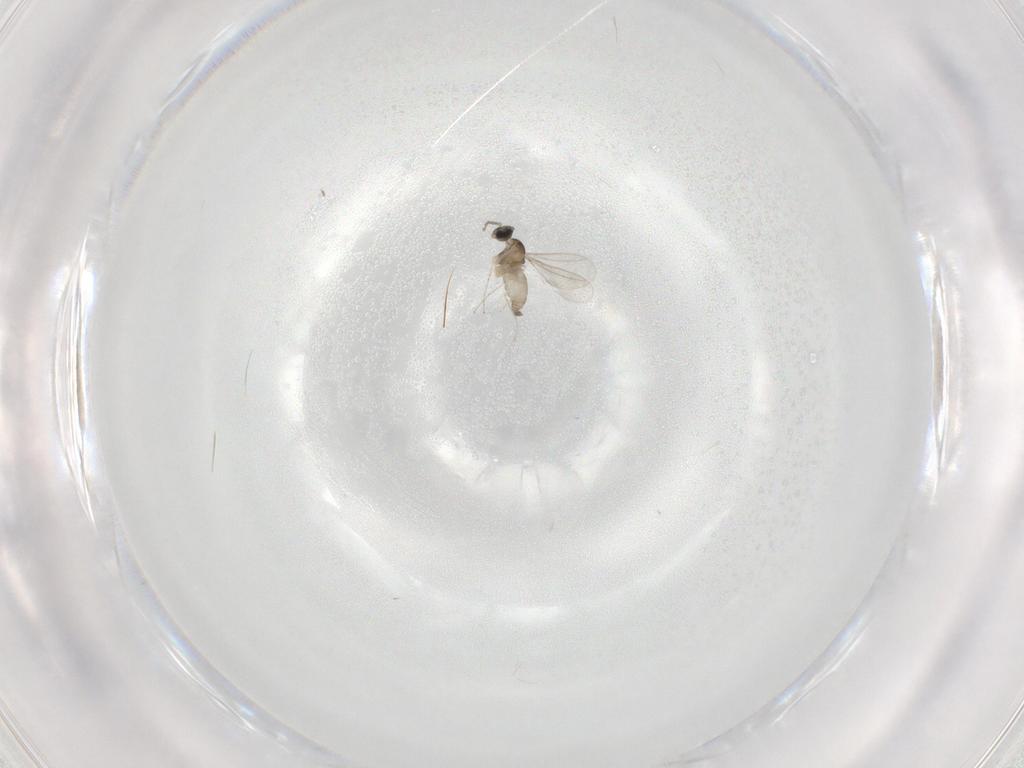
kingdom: Animalia
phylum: Arthropoda
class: Insecta
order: Diptera
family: Cecidomyiidae
